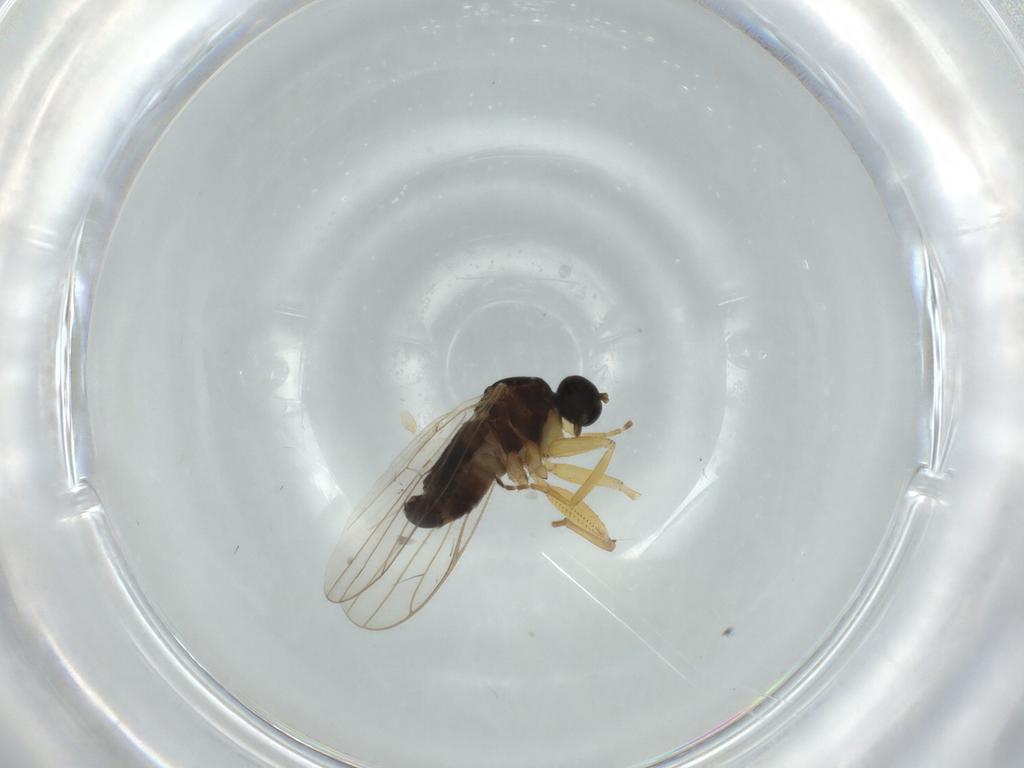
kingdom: Animalia
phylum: Arthropoda
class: Insecta
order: Diptera
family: Hybotidae
